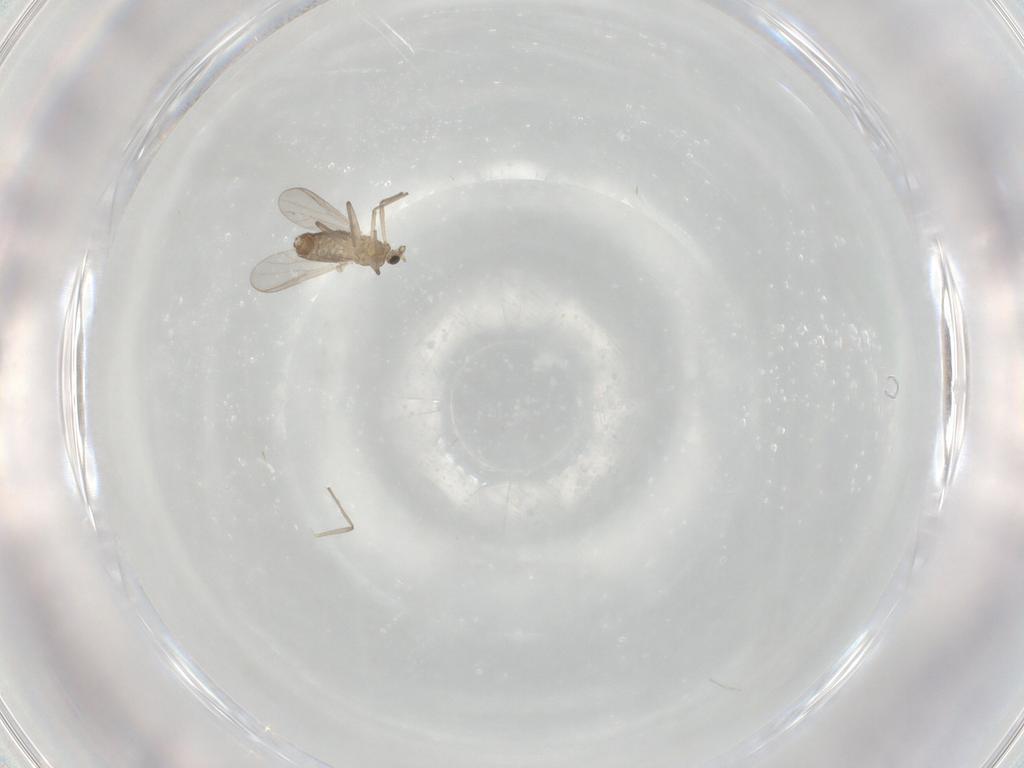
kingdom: Animalia
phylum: Arthropoda
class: Insecta
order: Diptera
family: Chironomidae
